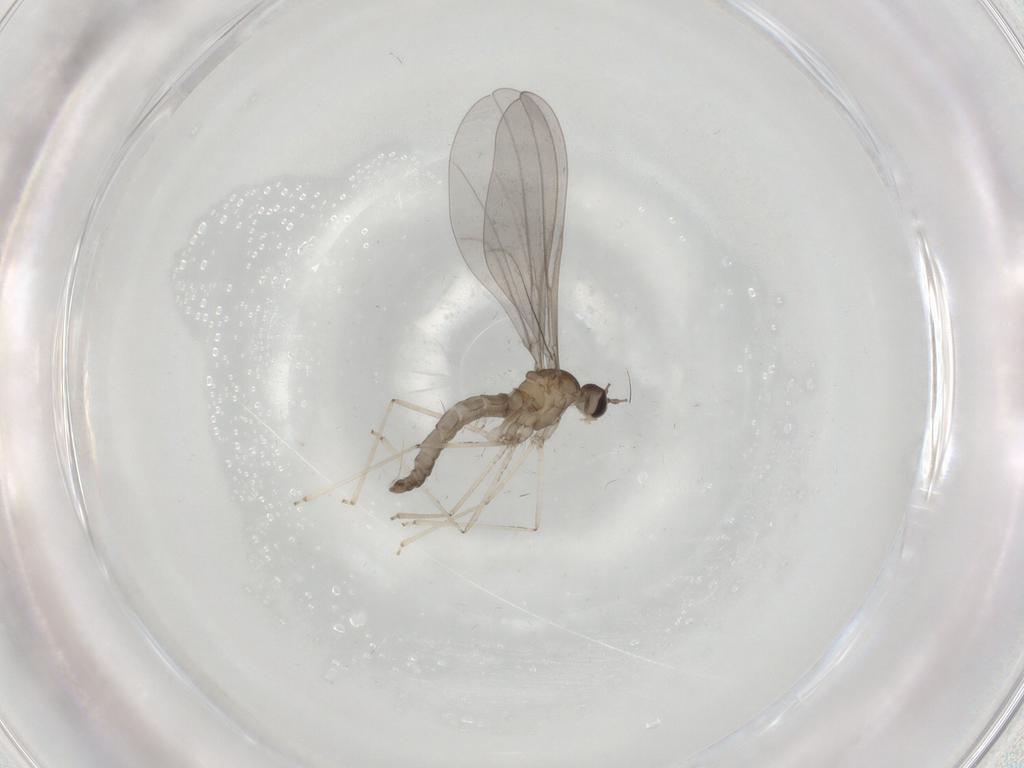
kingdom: Animalia
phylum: Arthropoda
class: Insecta
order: Diptera
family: Cecidomyiidae
